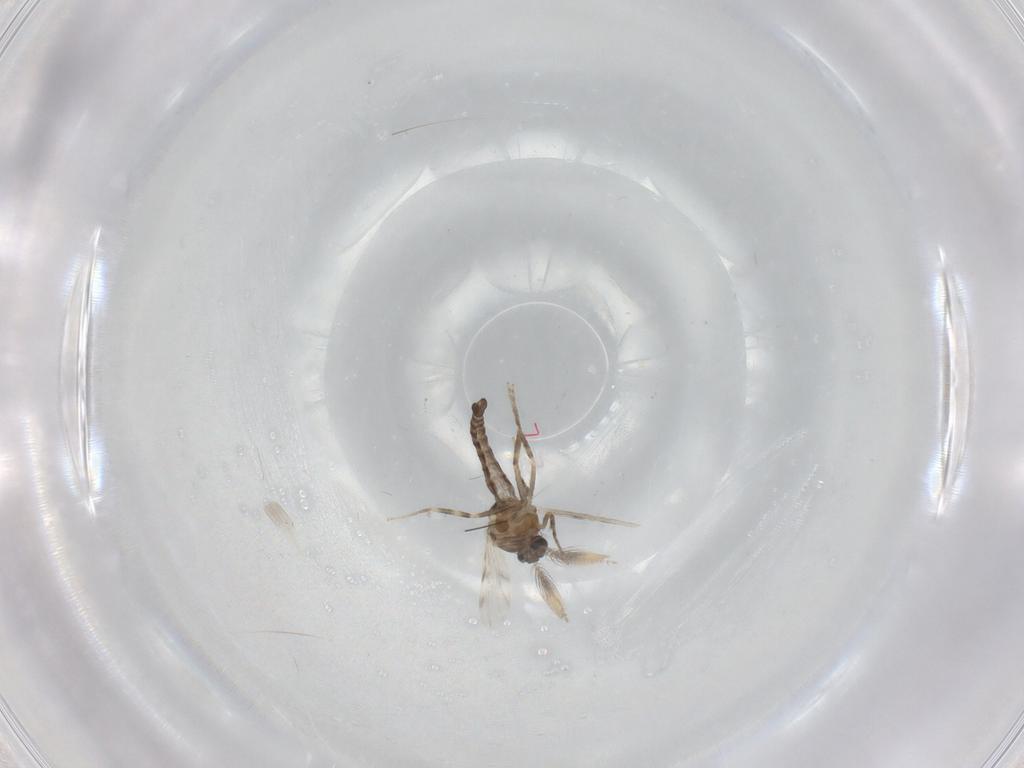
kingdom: Animalia
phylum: Arthropoda
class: Insecta
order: Diptera
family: Ceratopogonidae
